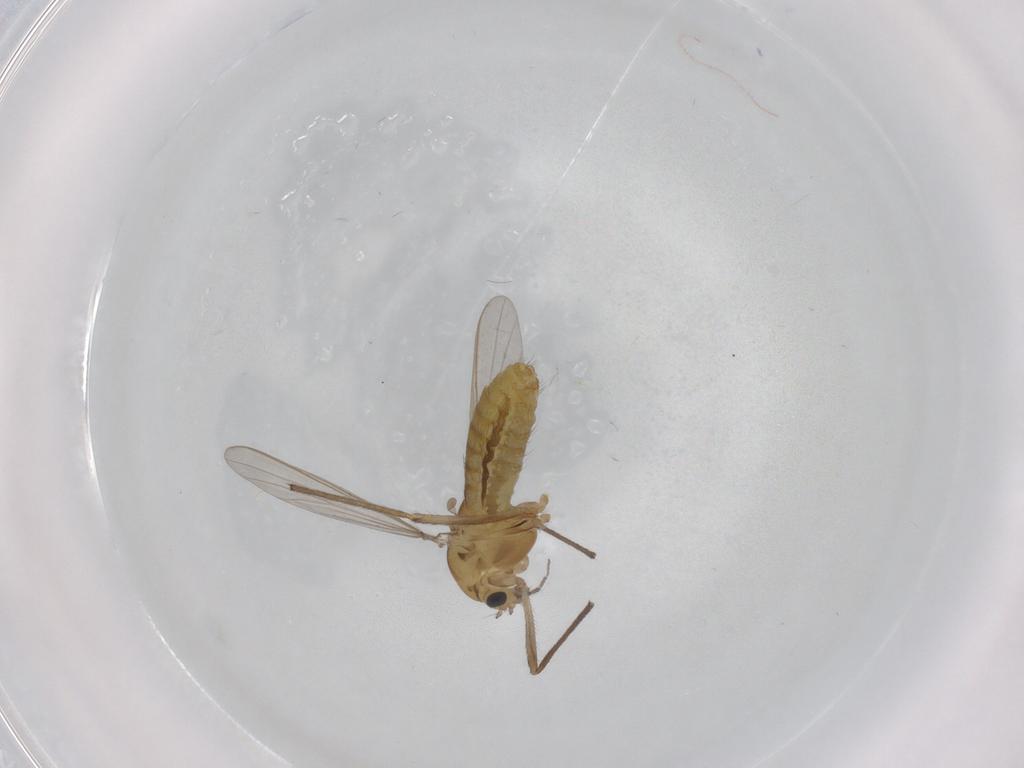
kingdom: Animalia
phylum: Arthropoda
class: Insecta
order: Diptera
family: Chironomidae
